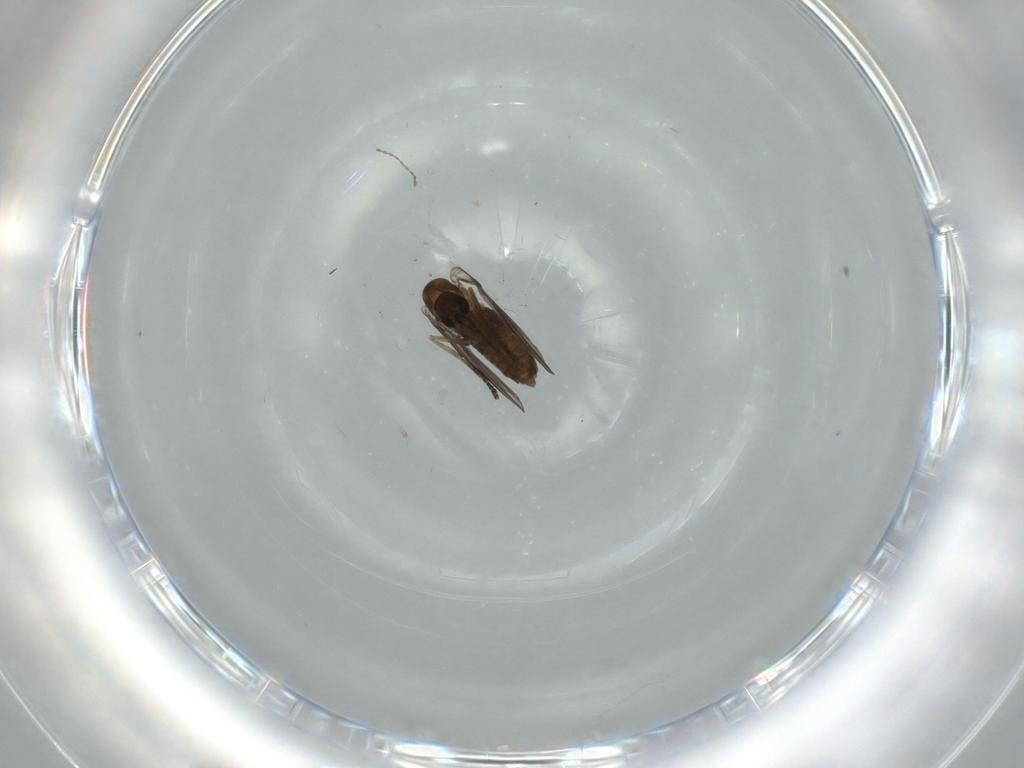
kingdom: Animalia
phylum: Arthropoda
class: Insecta
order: Diptera
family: Psychodidae
